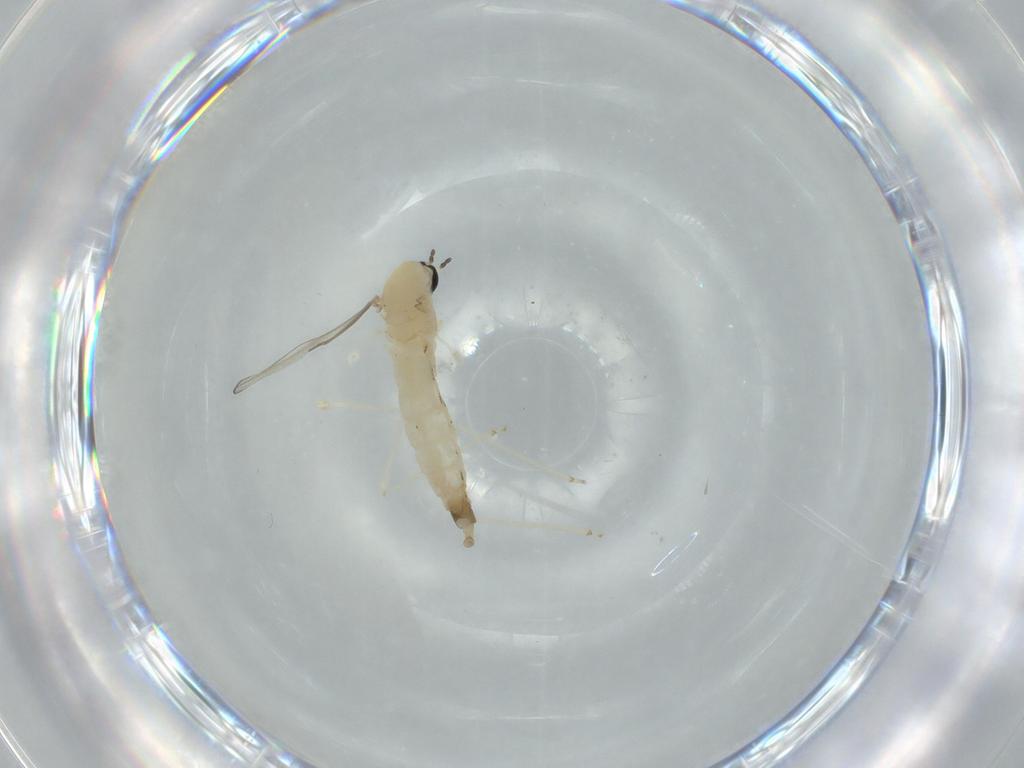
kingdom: Animalia
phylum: Arthropoda
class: Insecta
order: Diptera
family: Cecidomyiidae
